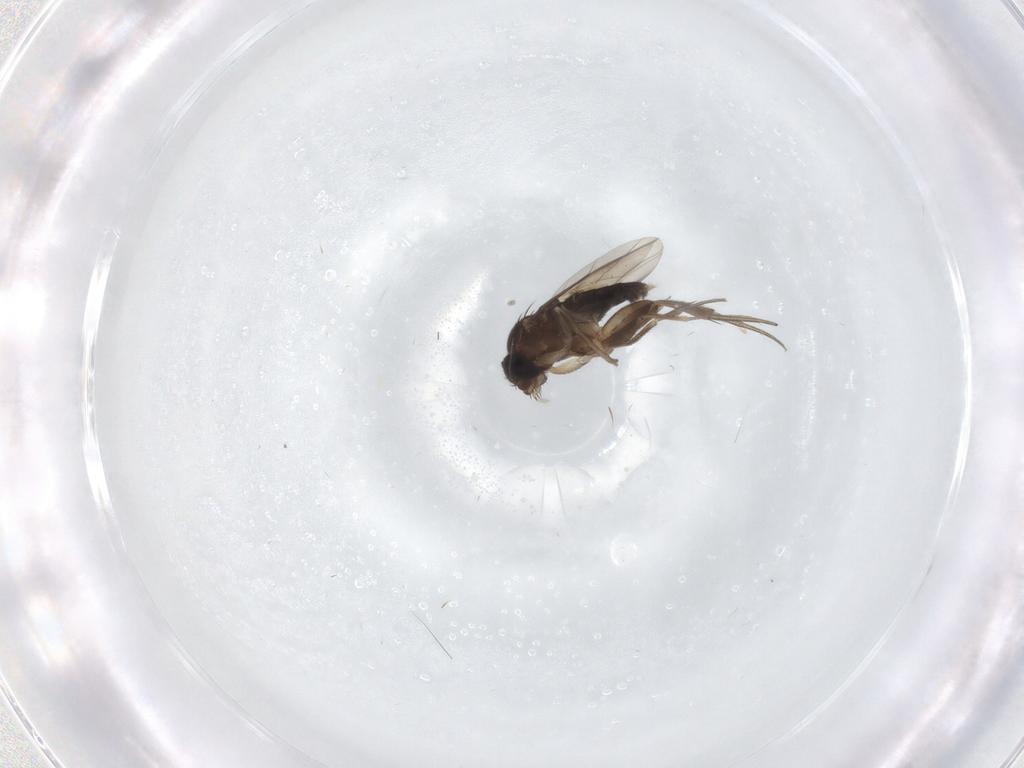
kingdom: Animalia
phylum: Arthropoda
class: Insecta
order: Diptera
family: Phoridae
